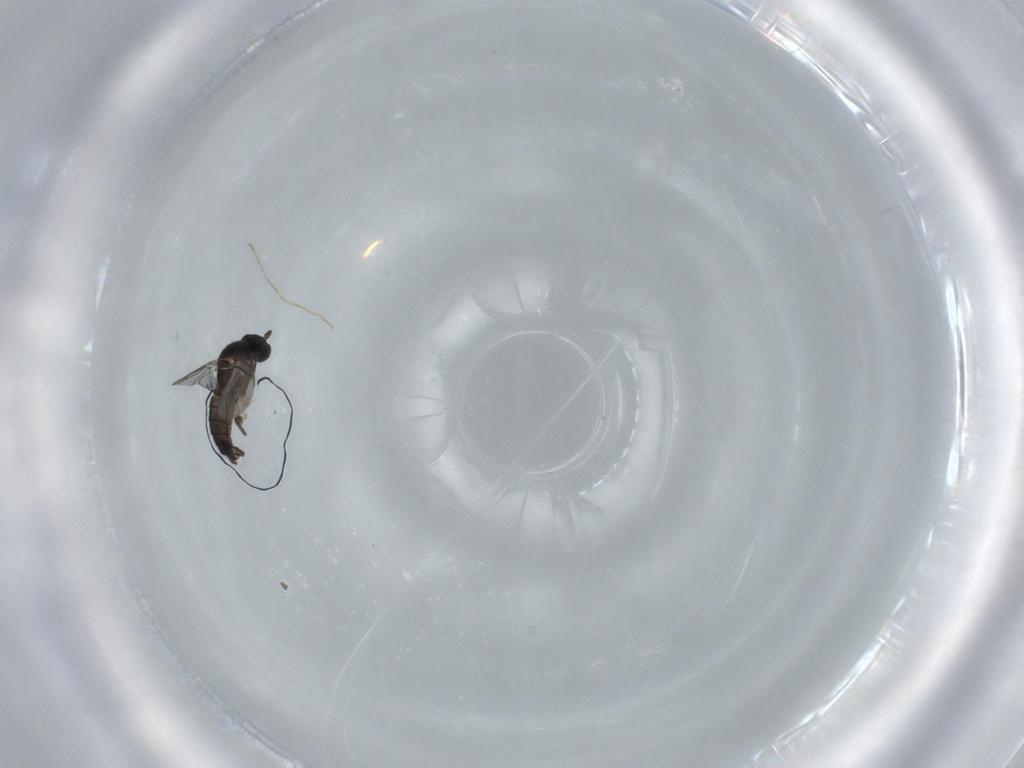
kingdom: Animalia
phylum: Arthropoda
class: Insecta
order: Diptera
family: Sciaridae
